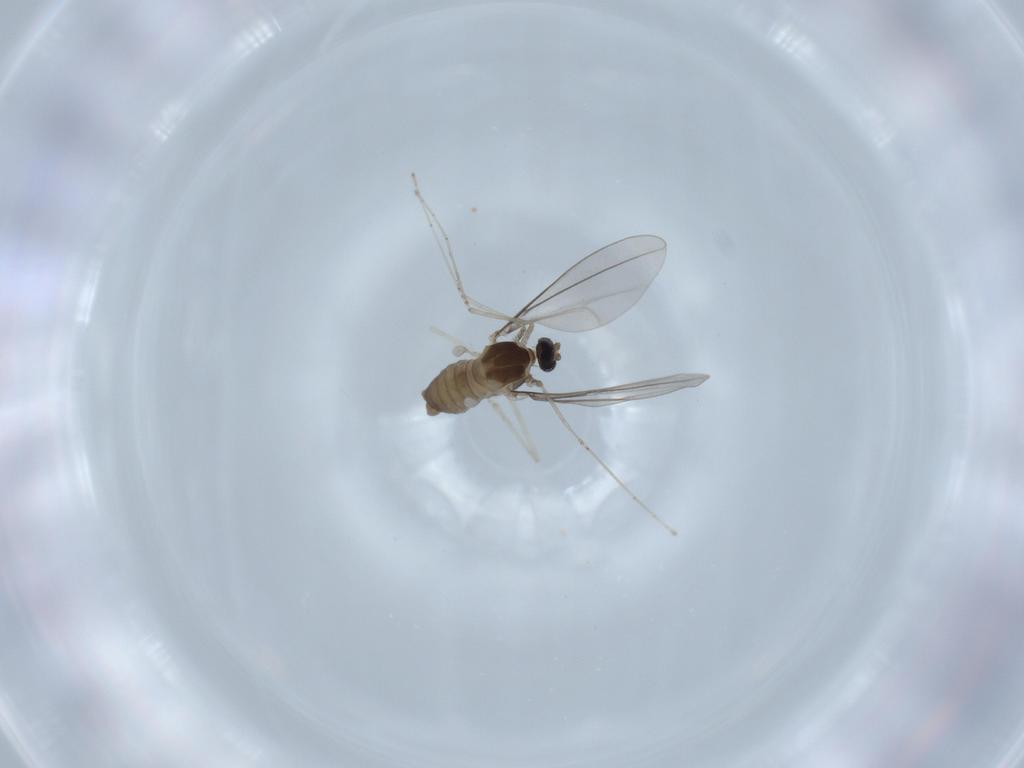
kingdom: Animalia
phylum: Arthropoda
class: Insecta
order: Diptera
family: Cecidomyiidae
